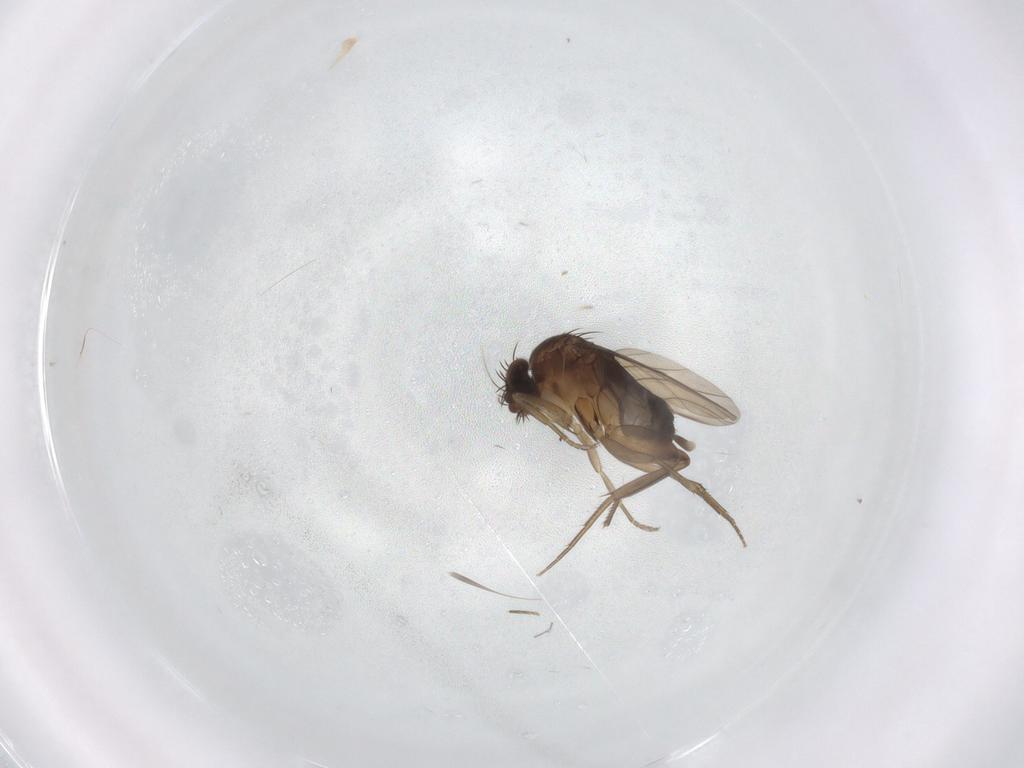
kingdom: Animalia
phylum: Arthropoda
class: Insecta
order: Diptera
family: Phoridae
